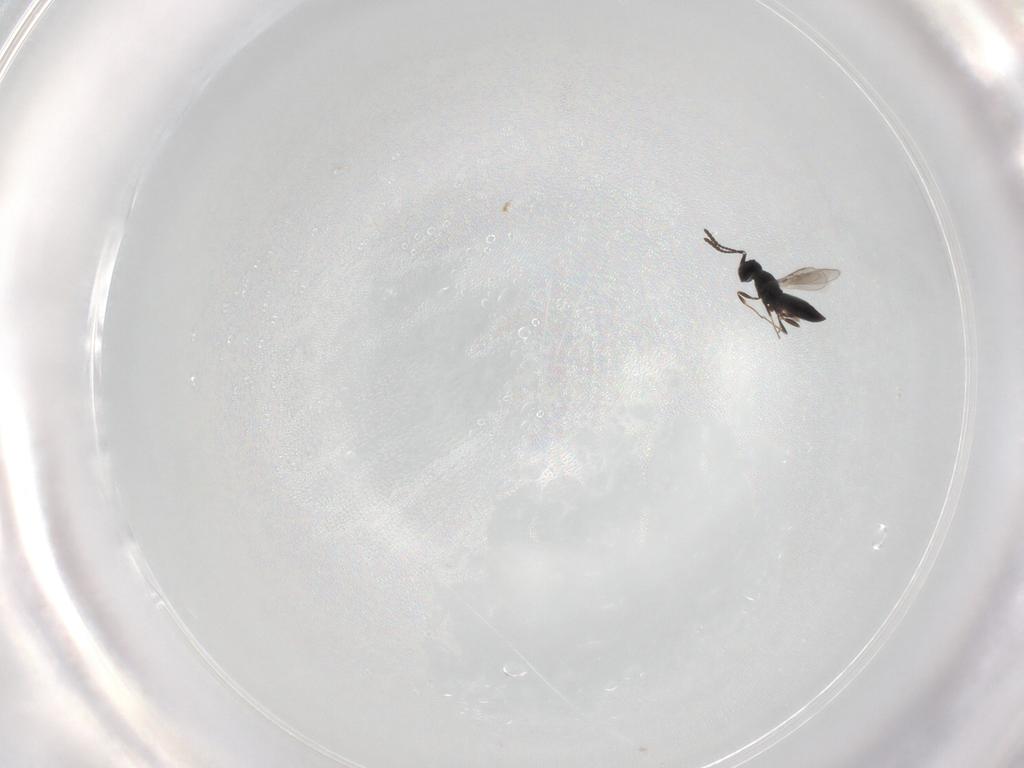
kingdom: Animalia
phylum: Arthropoda
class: Insecta
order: Hymenoptera
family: Scelionidae
